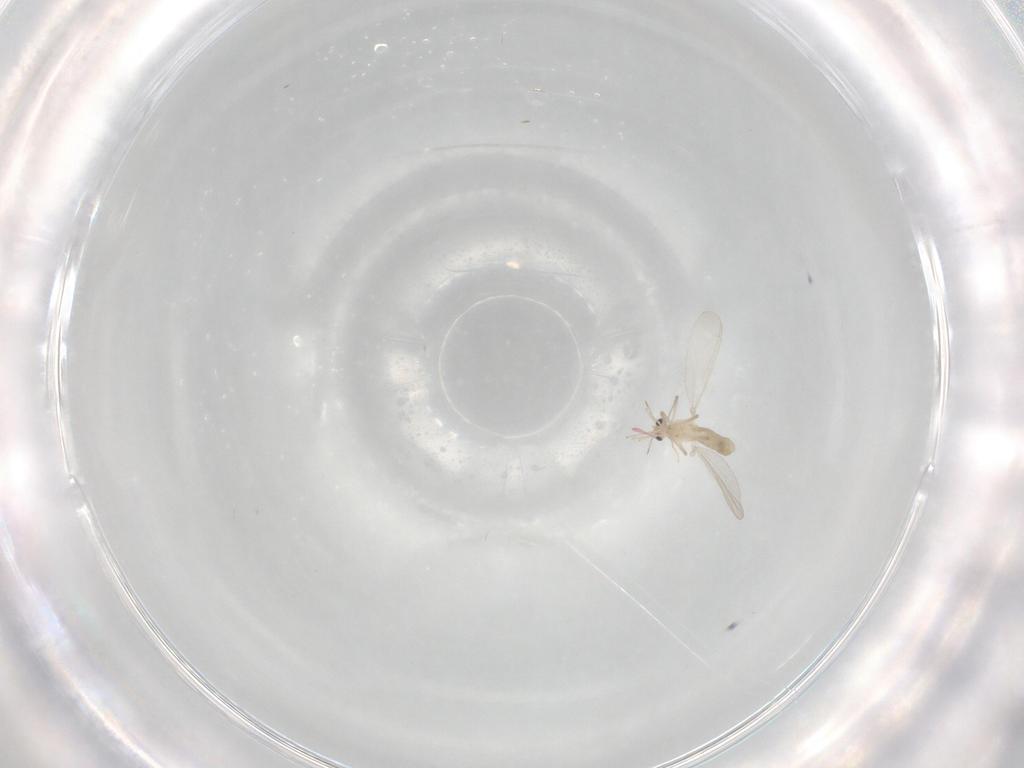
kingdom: Animalia
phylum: Arthropoda
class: Insecta
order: Diptera
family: Chironomidae
